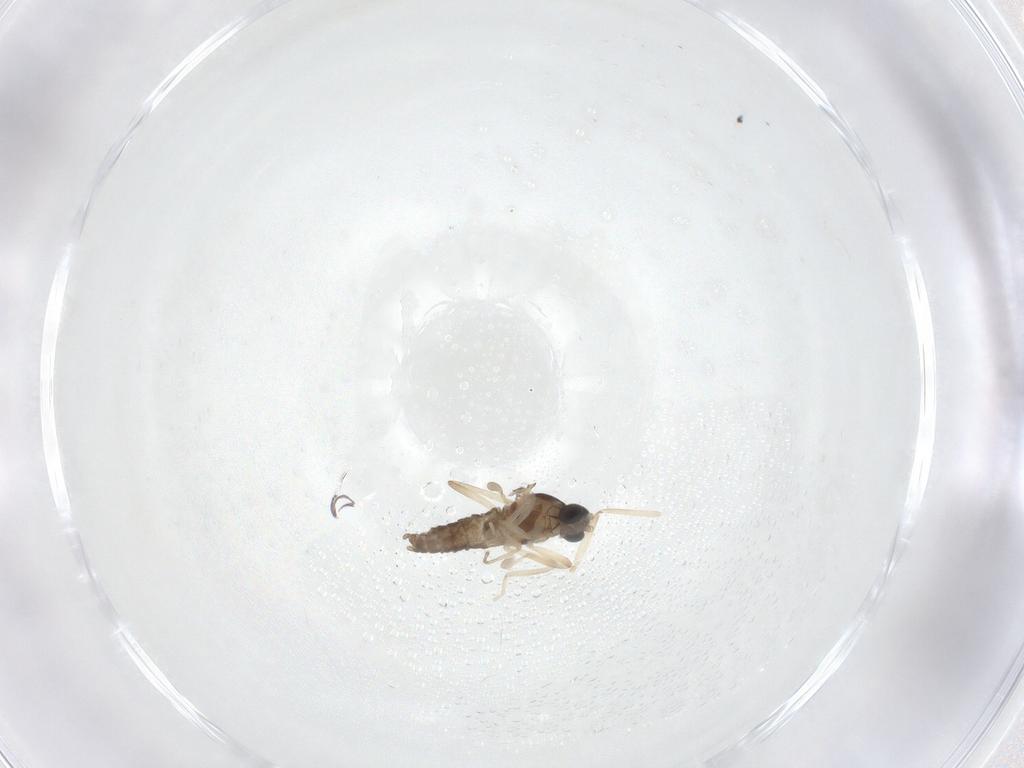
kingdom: Animalia
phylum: Arthropoda
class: Insecta
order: Diptera
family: Cecidomyiidae
